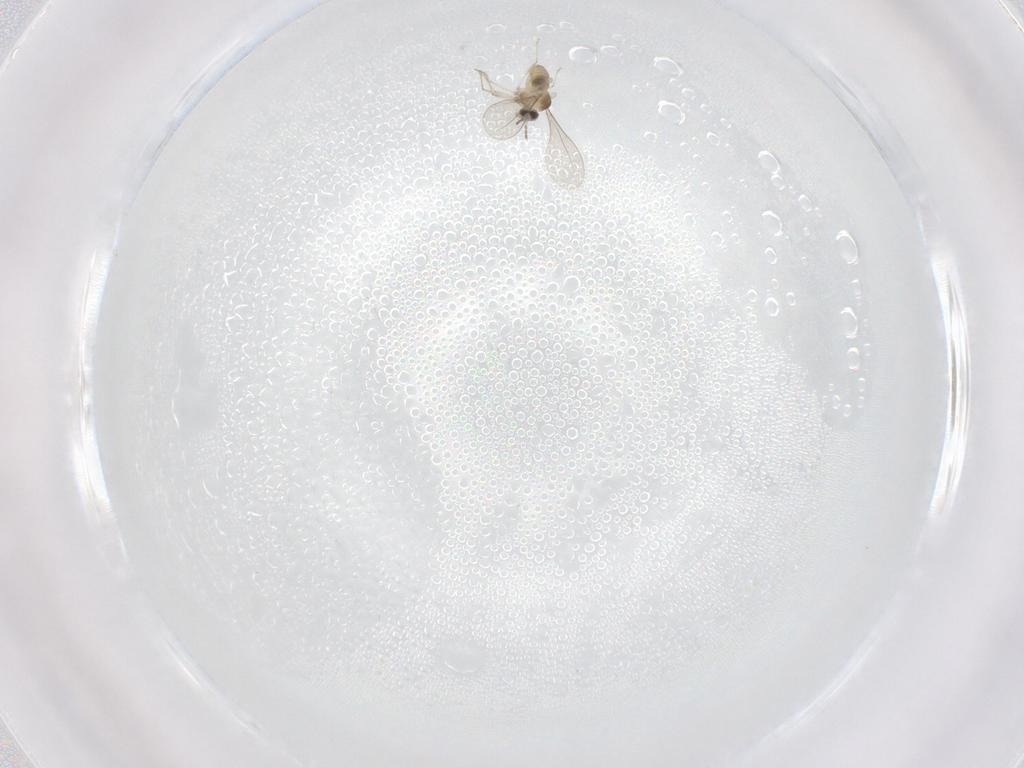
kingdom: Animalia
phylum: Arthropoda
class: Insecta
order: Diptera
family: Cecidomyiidae
